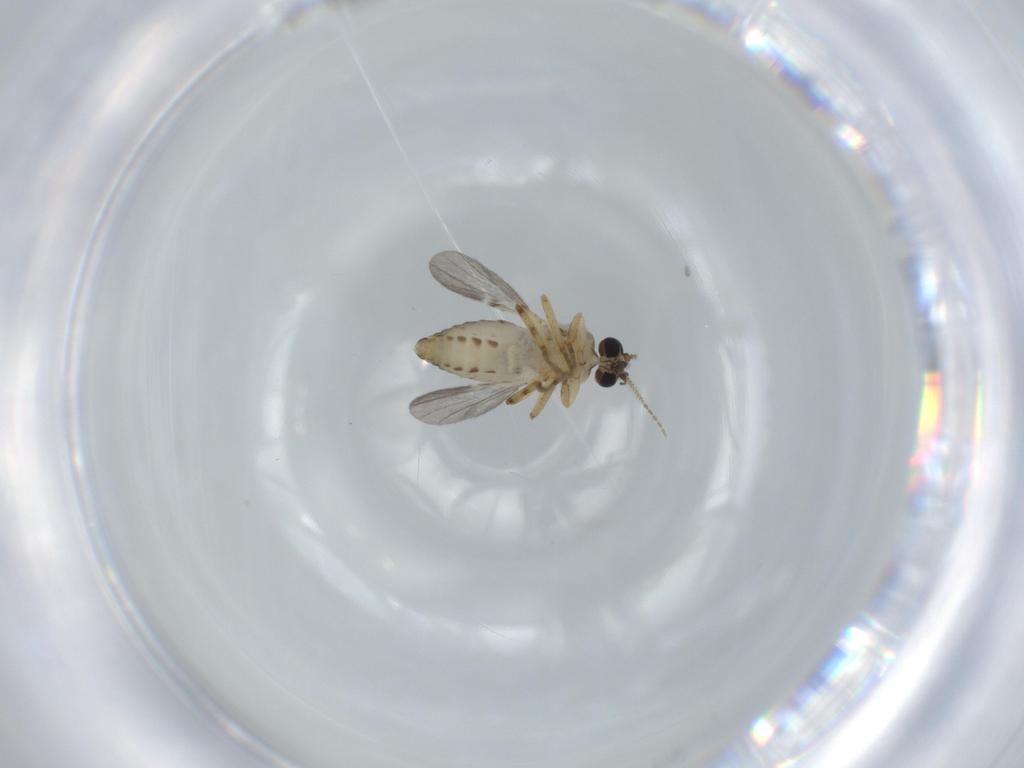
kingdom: Animalia
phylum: Arthropoda
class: Insecta
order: Diptera
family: Ceratopogonidae
